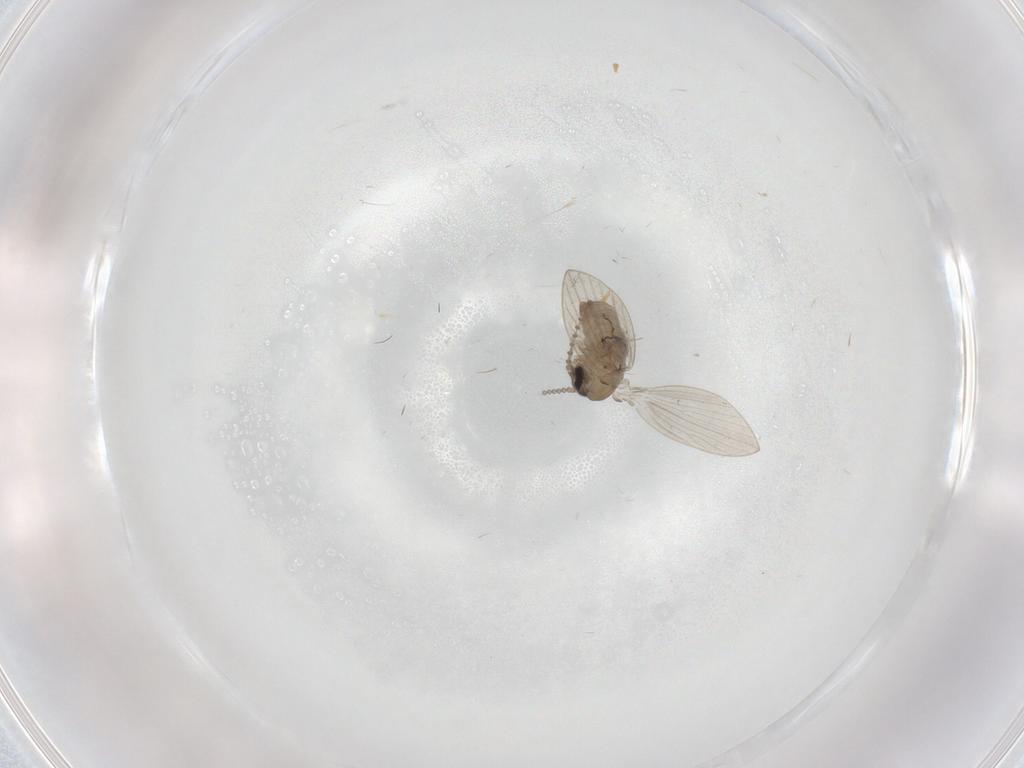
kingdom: Animalia
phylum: Arthropoda
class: Insecta
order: Diptera
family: Psychodidae
